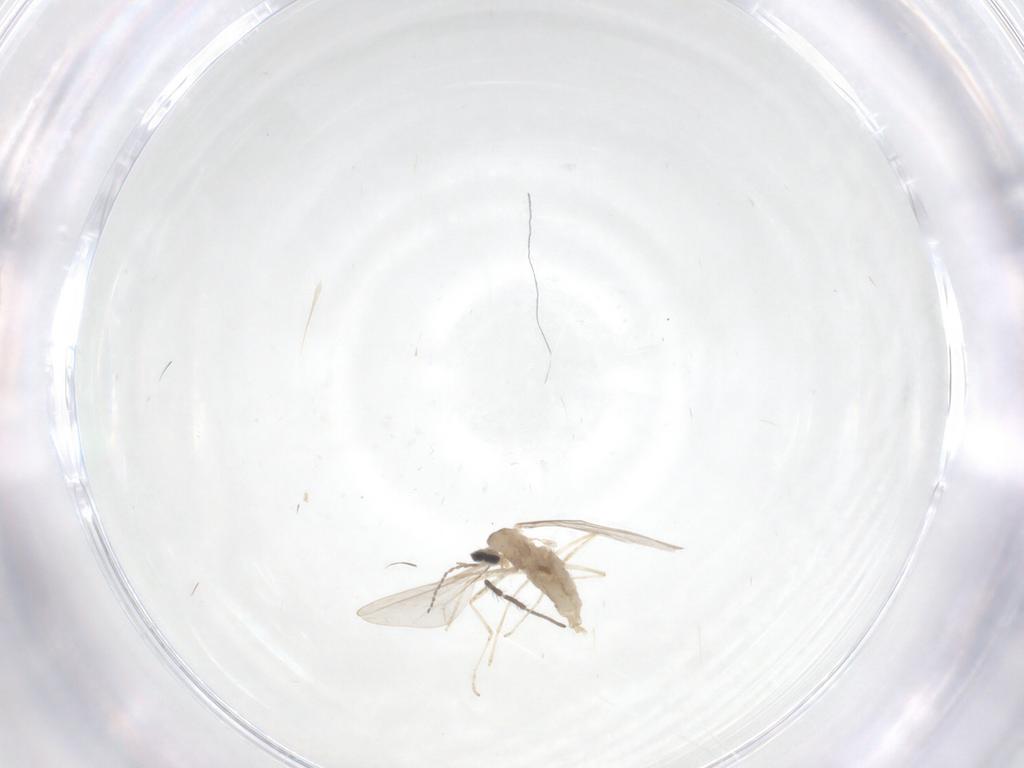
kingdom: Animalia
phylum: Arthropoda
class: Insecta
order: Diptera
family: Cecidomyiidae
